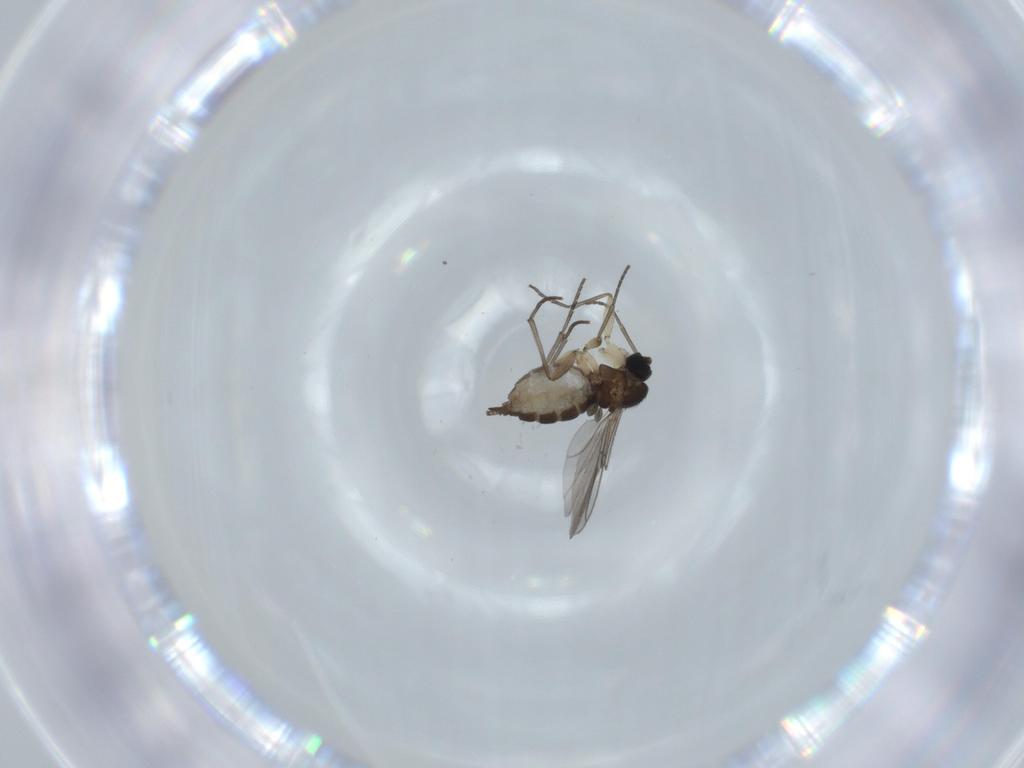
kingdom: Animalia
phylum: Arthropoda
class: Insecta
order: Diptera
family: Sciaridae
